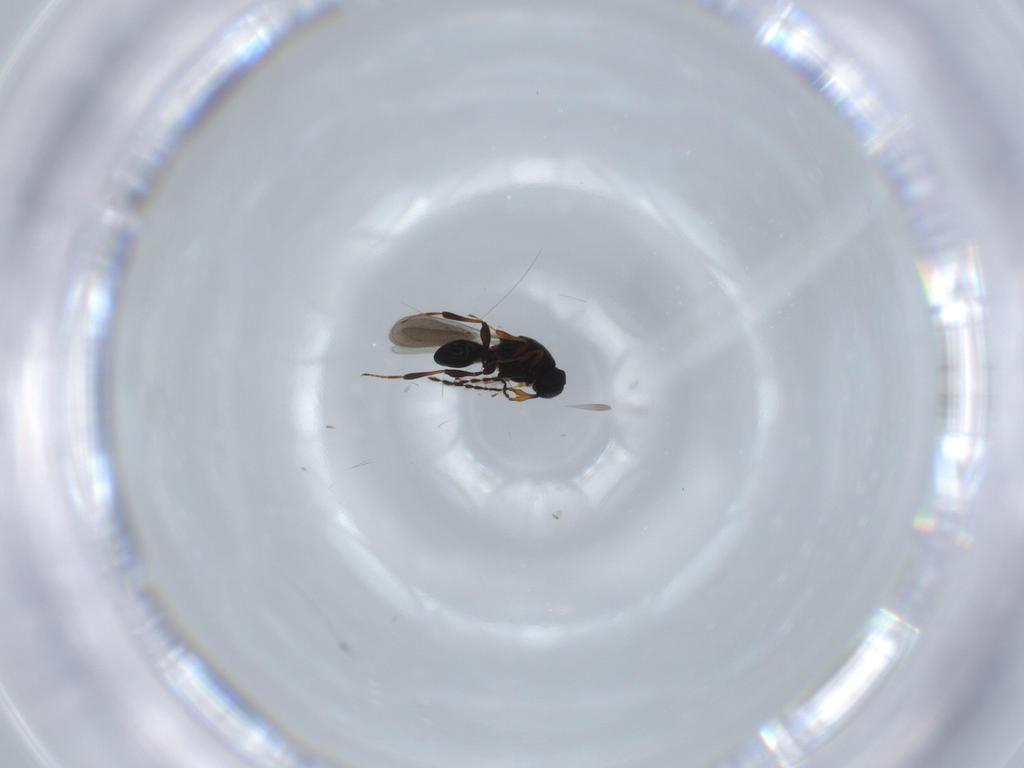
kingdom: Animalia
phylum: Arthropoda
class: Insecta
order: Hymenoptera
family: Platygastridae
